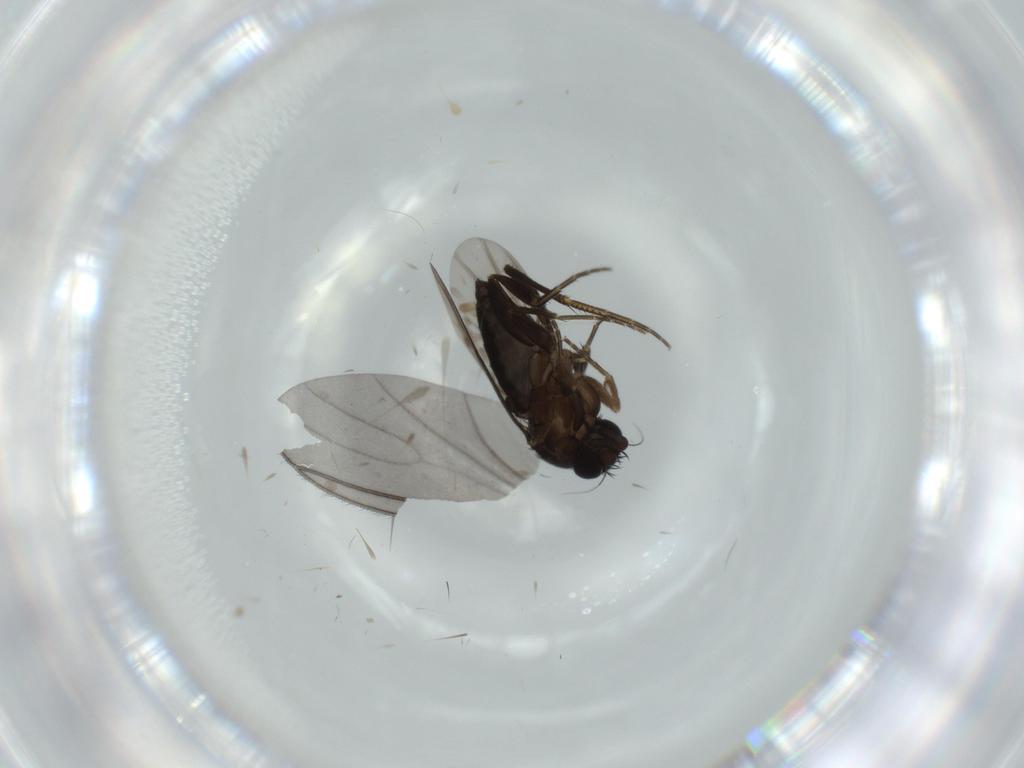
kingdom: Animalia
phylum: Arthropoda
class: Insecta
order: Diptera
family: Phoridae
